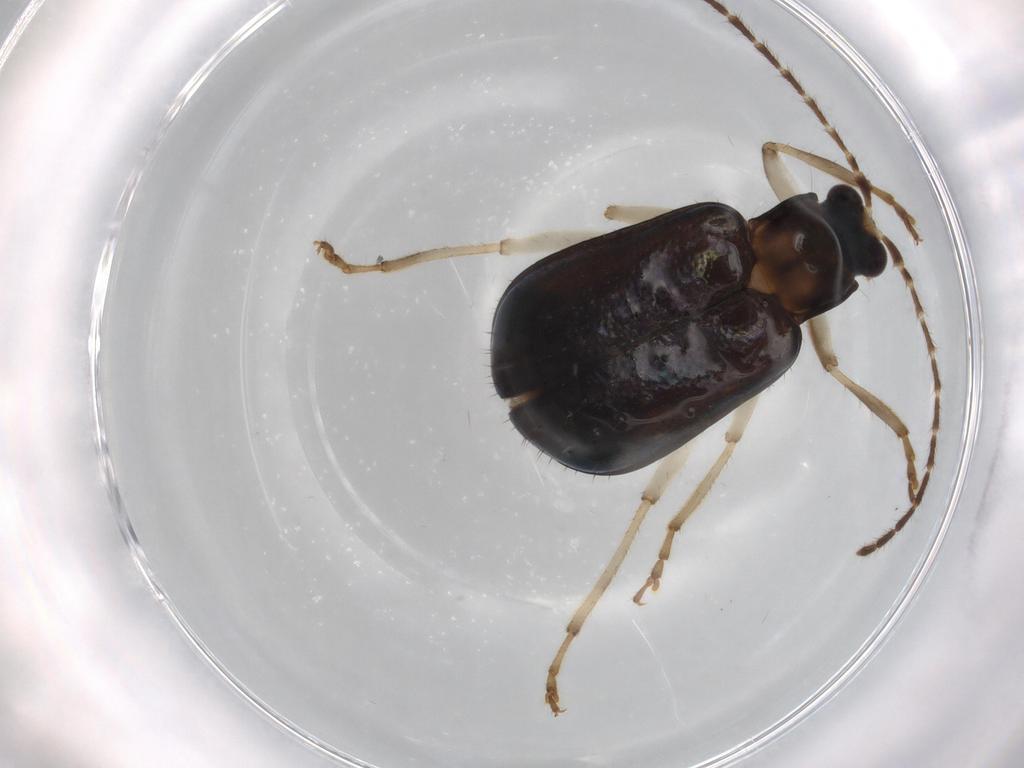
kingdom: Animalia
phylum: Arthropoda
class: Insecta
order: Coleoptera
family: Chrysomelidae
